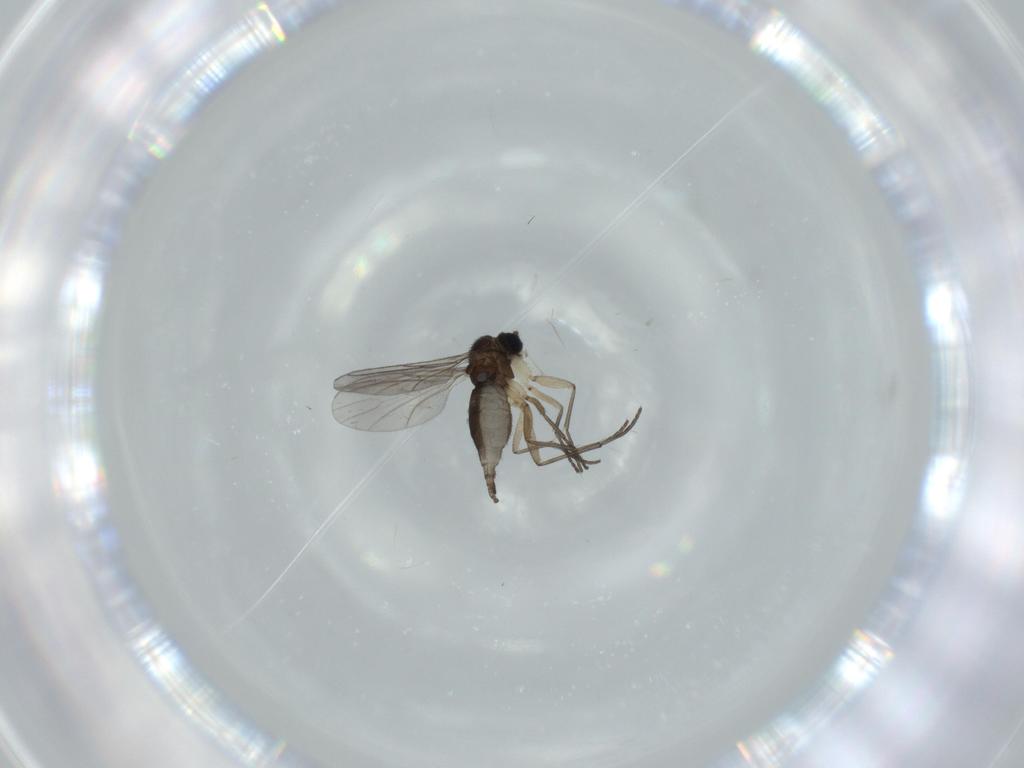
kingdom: Animalia
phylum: Arthropoda
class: Insecta
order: Diptera
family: Sciaridae
